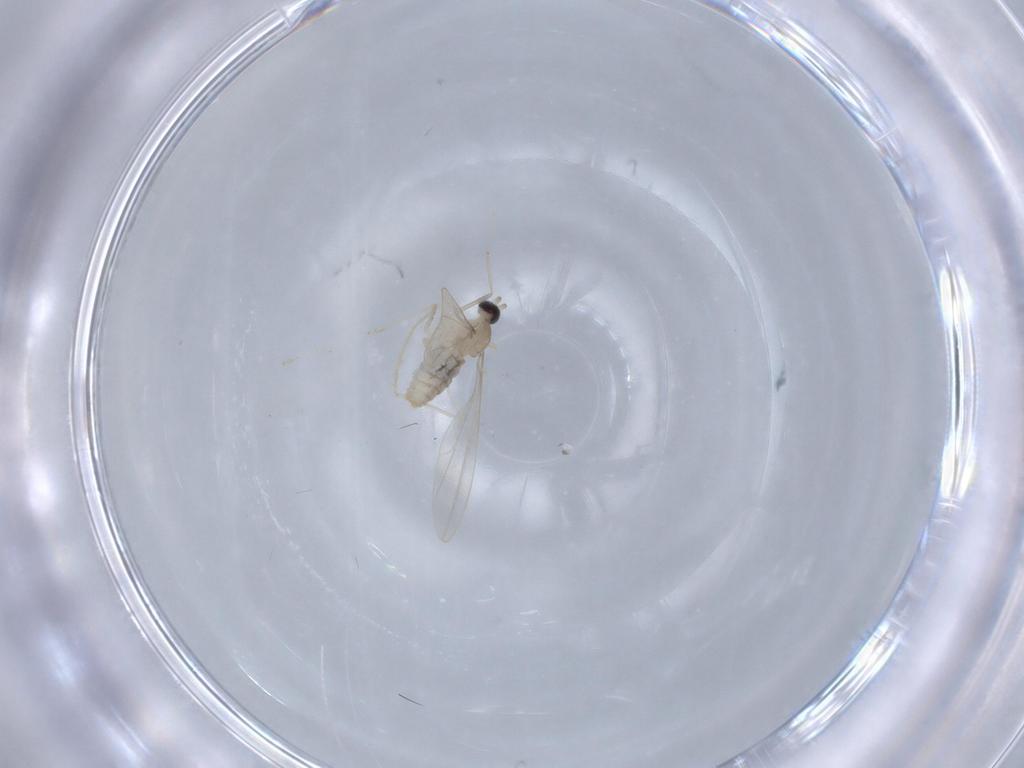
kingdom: Animalia
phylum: Arthropoda
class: Insecta
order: Diptera
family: Cecidomyiidae
